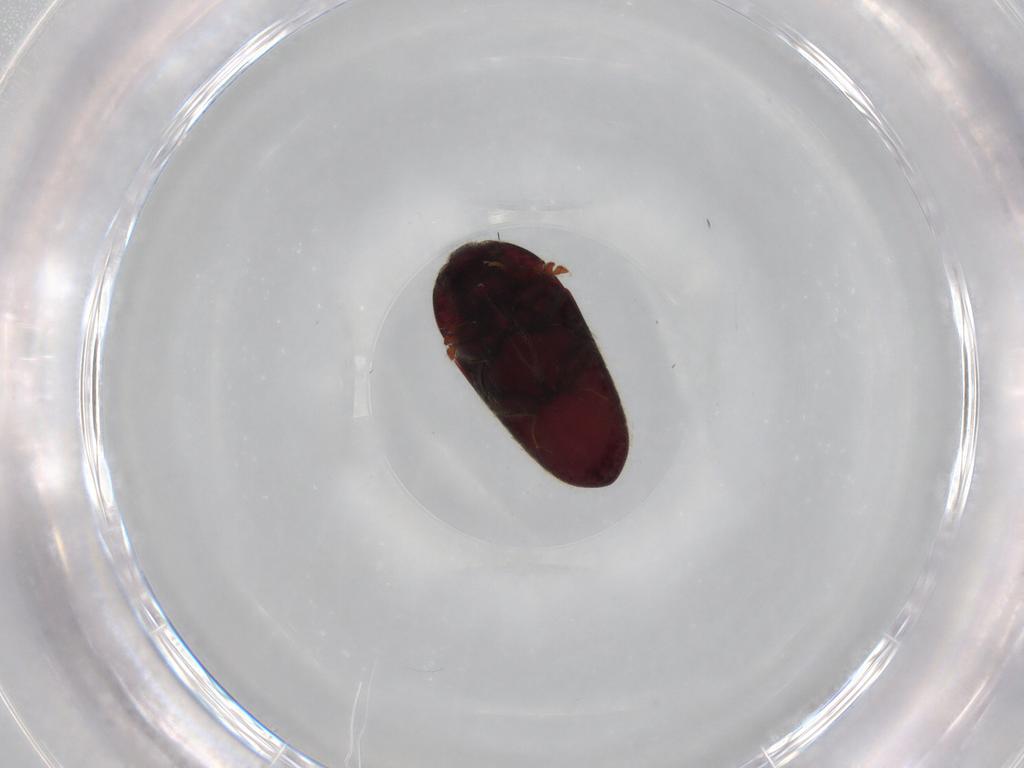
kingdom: Animalia
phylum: Arthropoda
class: Insecta
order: Coleoptera
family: Throscidae
